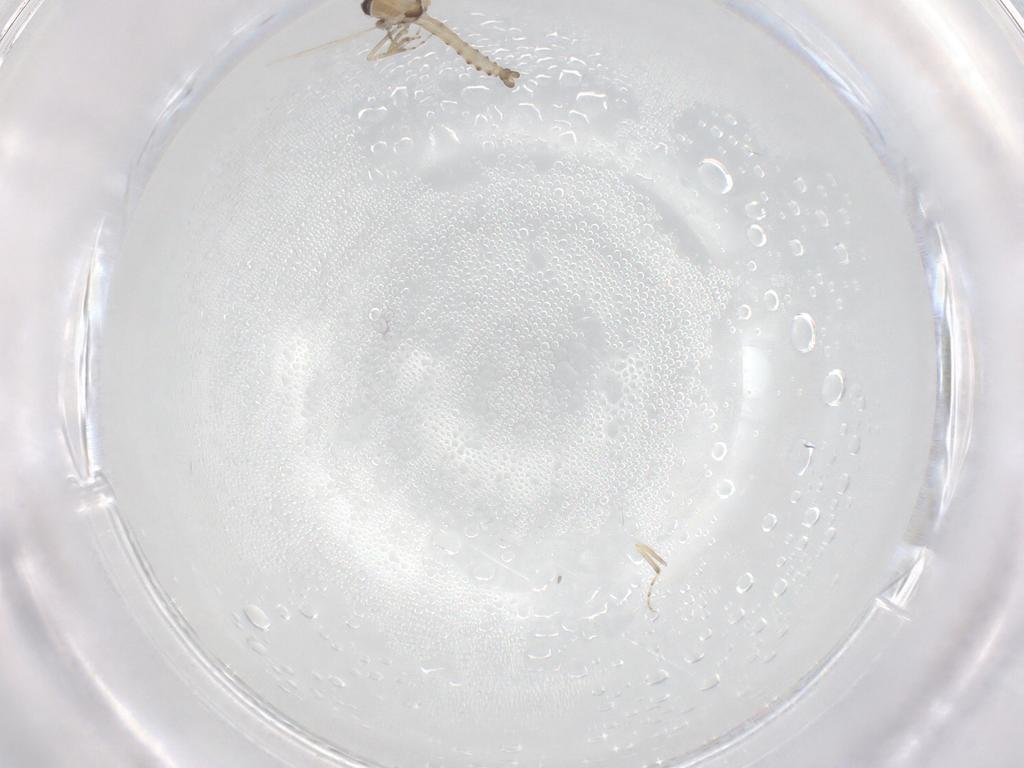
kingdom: Animalia
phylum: Arthropoda
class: Insecta
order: Diptera
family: Ceratopogonidae
